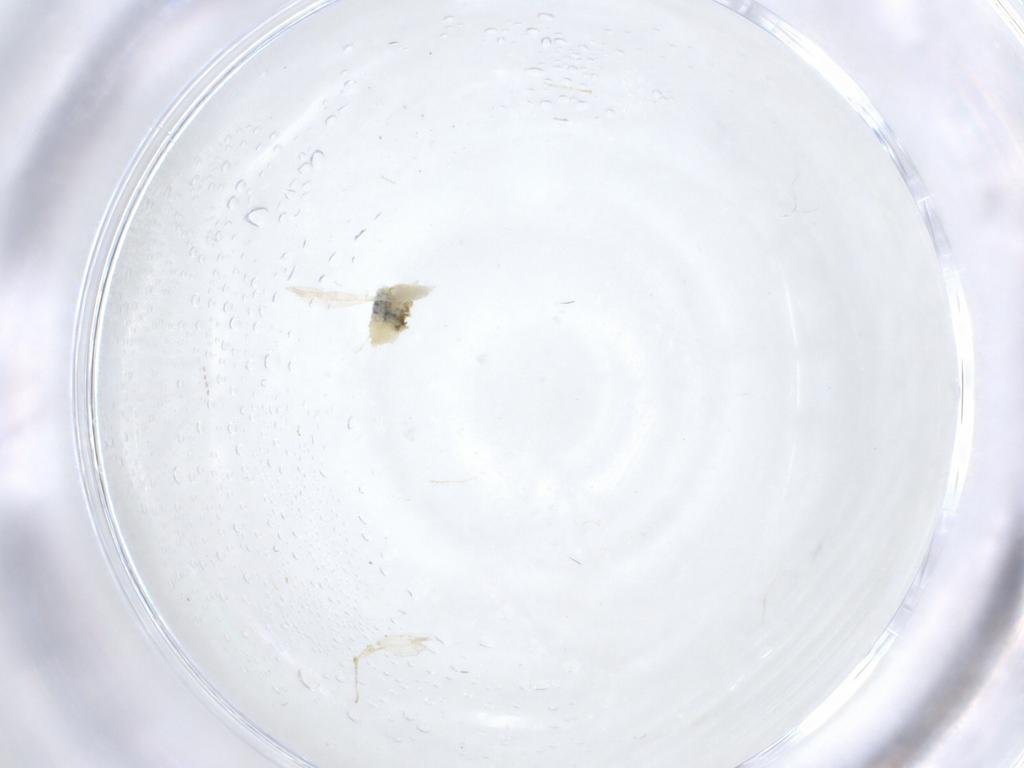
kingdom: Animalia
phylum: Arthropoda
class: Insecta
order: Diptera
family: Cecidomyiidae
